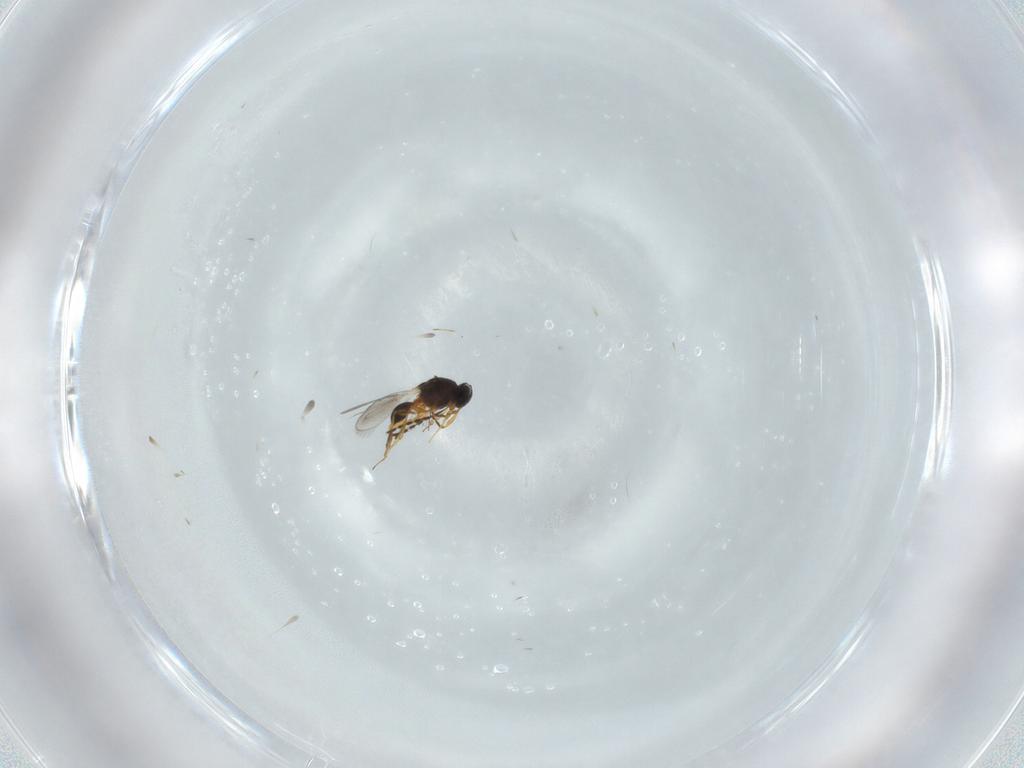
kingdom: Animalia
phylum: Arthropoda
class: Insecta
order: Hymenoptera
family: Platygastridae
